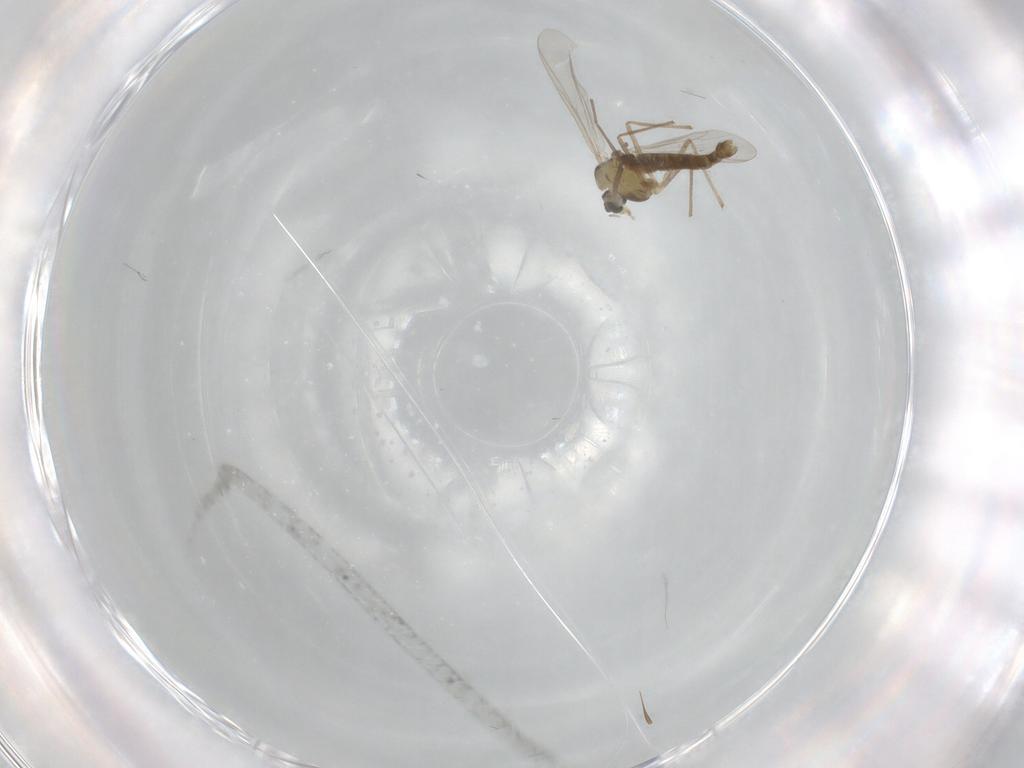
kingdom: Animalia
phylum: Arthropoda
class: Insecta
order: Diptera
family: Chironomidae
